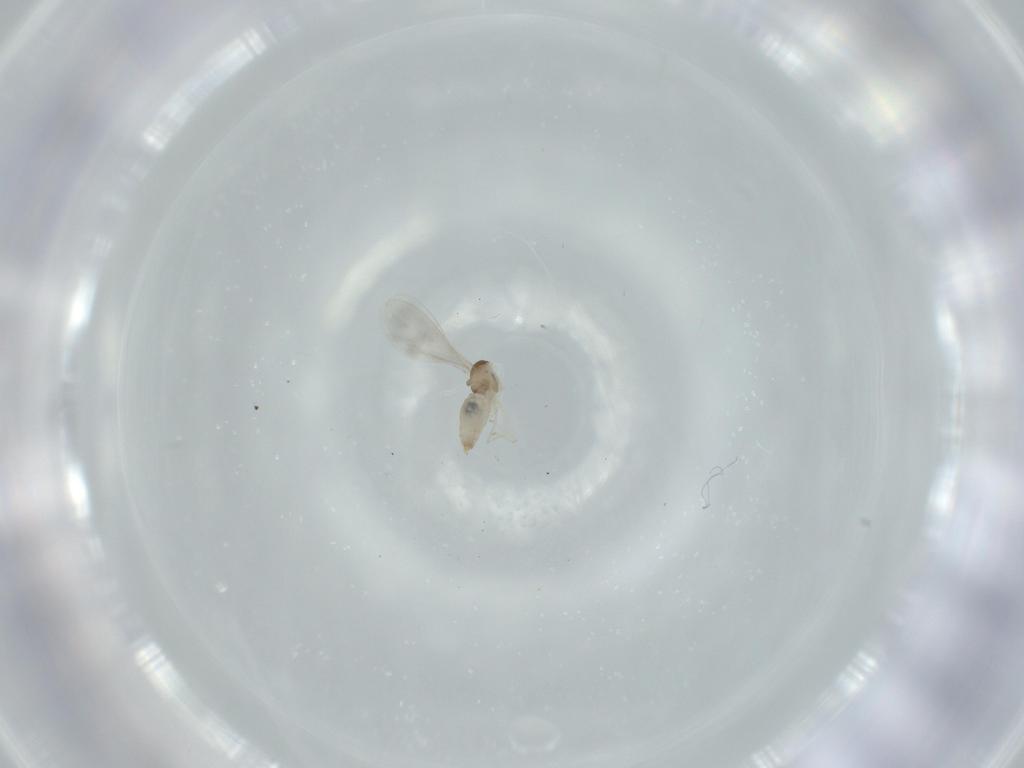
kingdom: Animalia
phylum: Arthropoda
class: Insecta
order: Diptera
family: Cecidomyiidae
